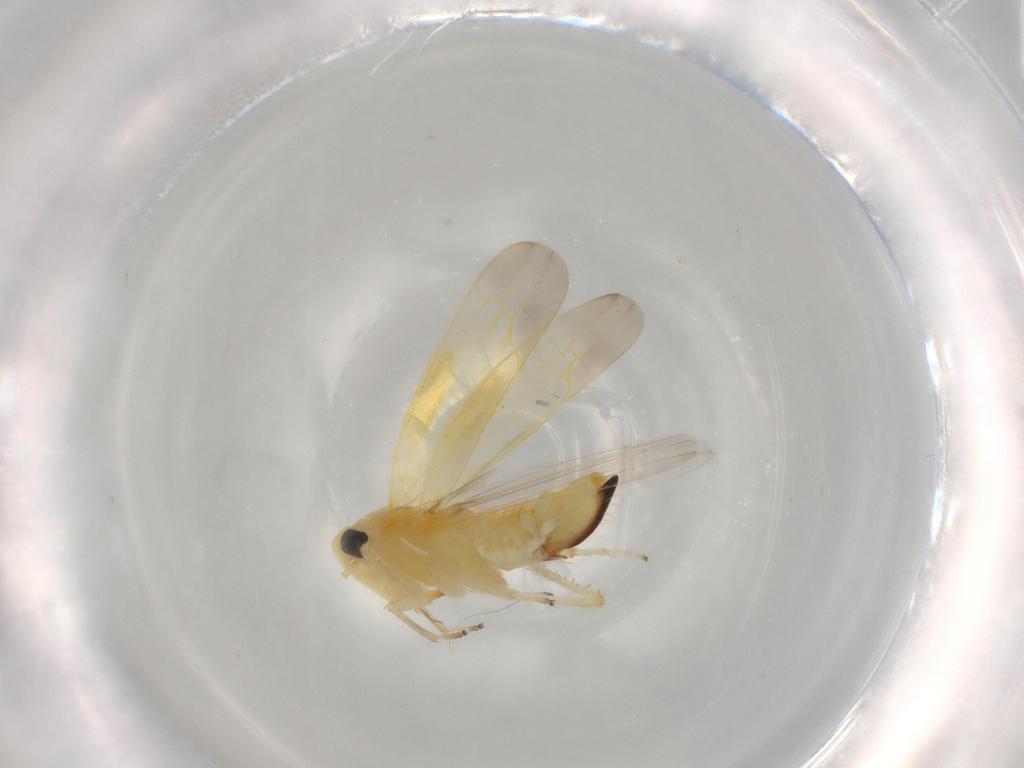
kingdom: Animalia
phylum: Arthropoda
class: Insecta
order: Hemiptera
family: Cicadellidae
